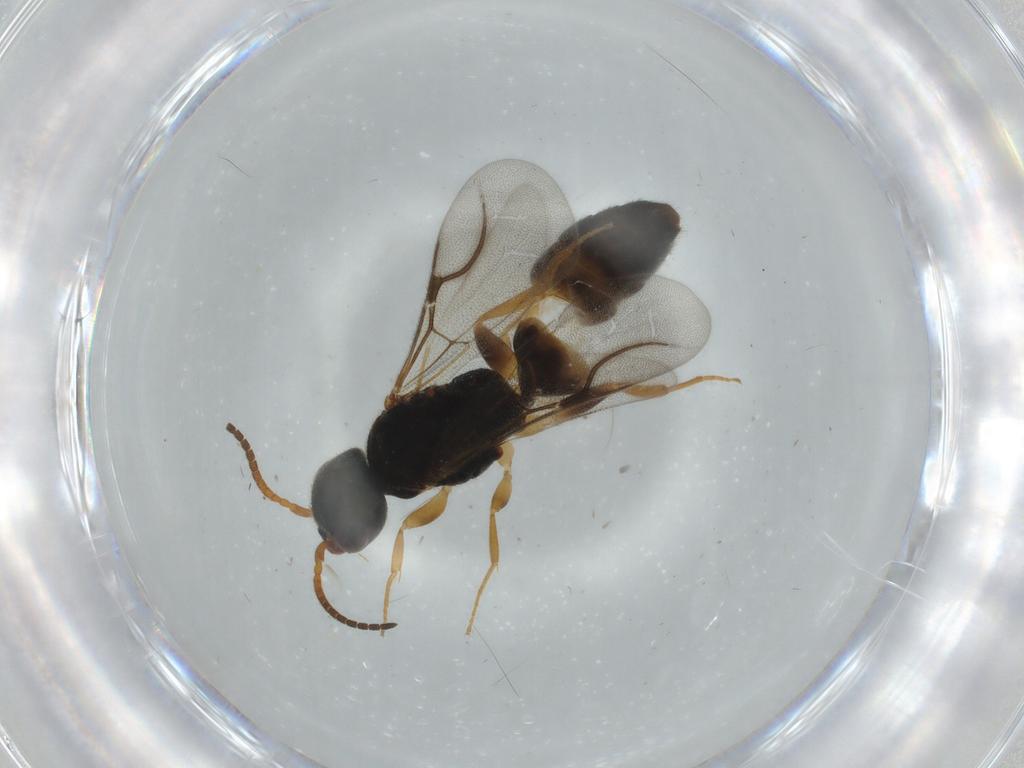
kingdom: Animalia
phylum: Arthropoda
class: Insecta
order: Hymenoptera
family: Bethylidae
